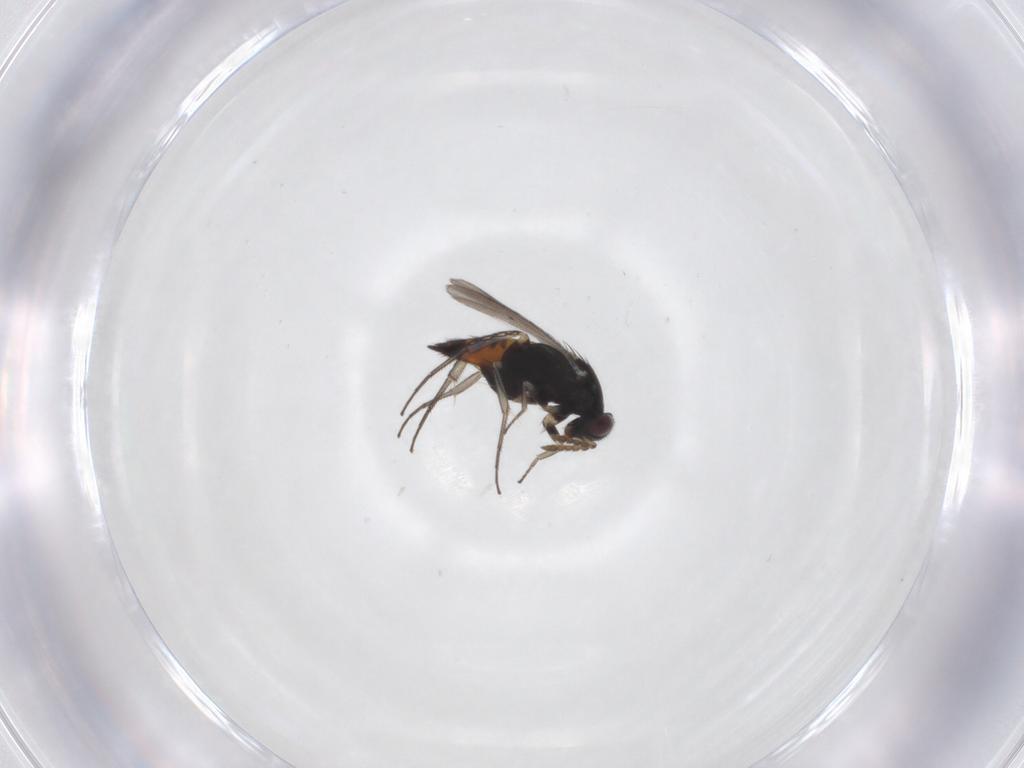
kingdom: Animalia
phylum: Arthropoda
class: Insecta
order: Diptera
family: Cecidomyiidae
